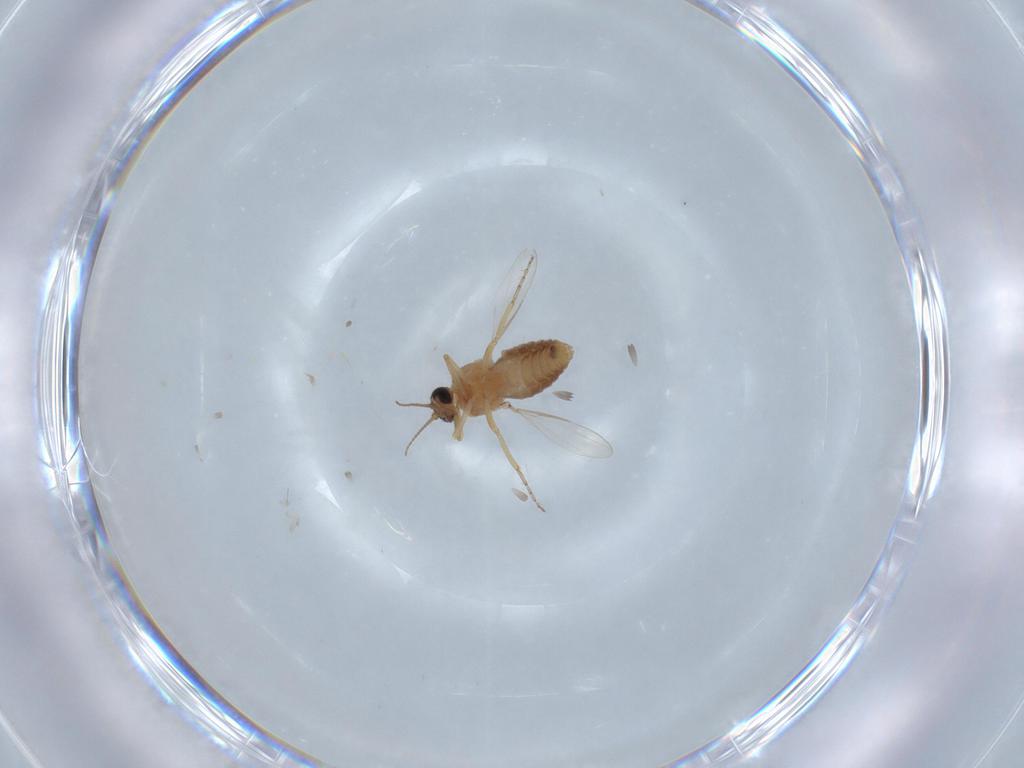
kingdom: Animalia
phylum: Arthropoda
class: Insecta
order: Diptera
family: Ceratopogonidae
